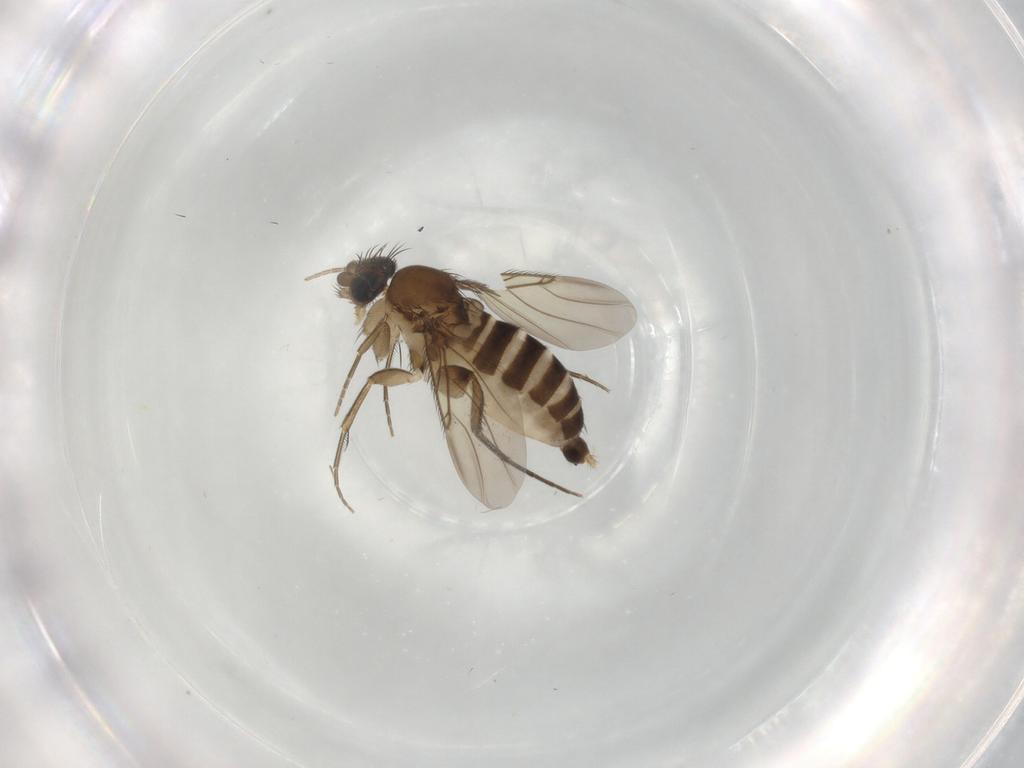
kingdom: Animalia
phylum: Arthropoda
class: Insecta
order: Diptera
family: Phoridae
